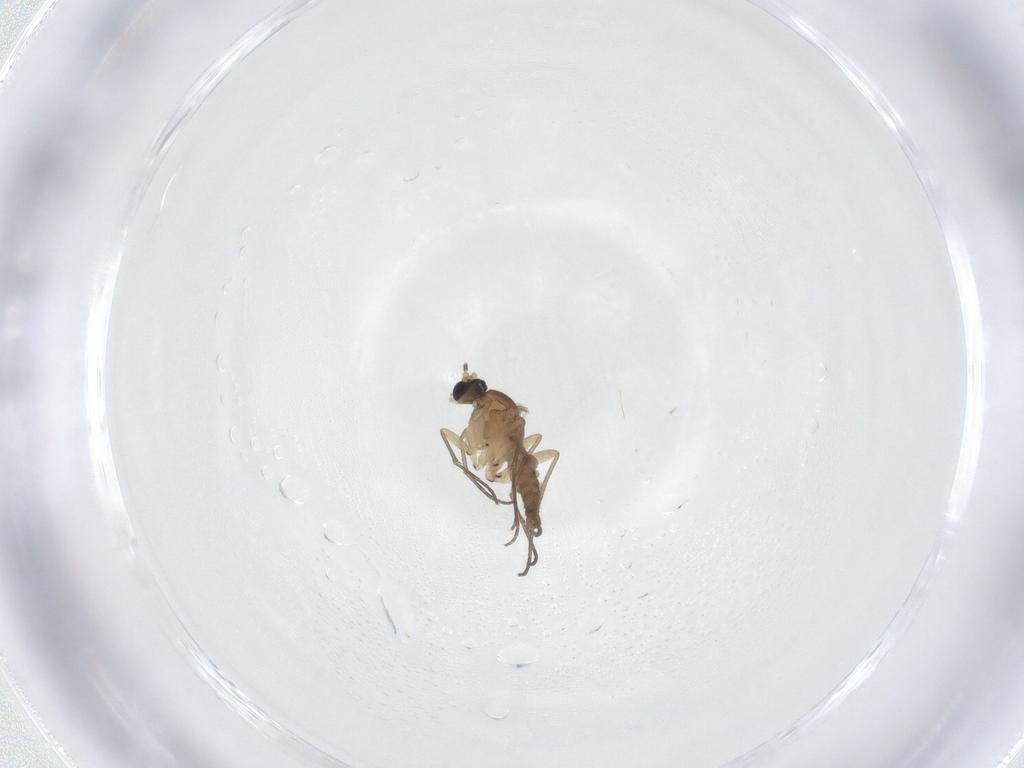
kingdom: Animalia
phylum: Arthropoda
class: Insecta
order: Diptera
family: Sciaridae
